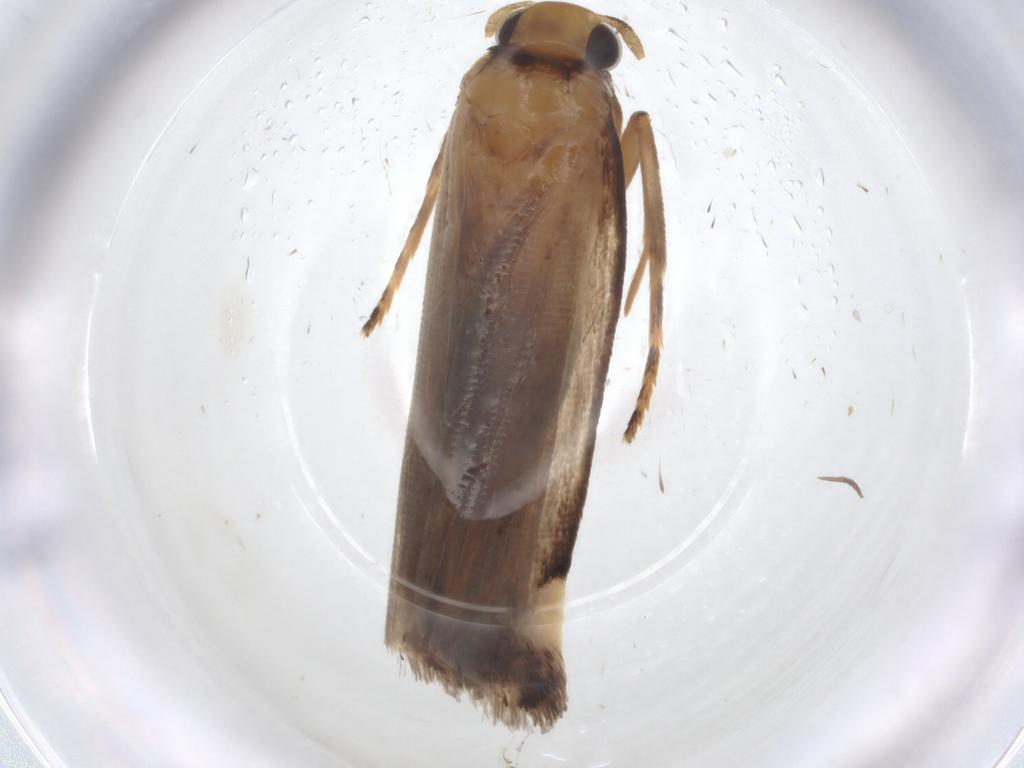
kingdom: Animalia
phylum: Arthropoda
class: Insecta
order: Lepidoptera
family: Gelechiidae
